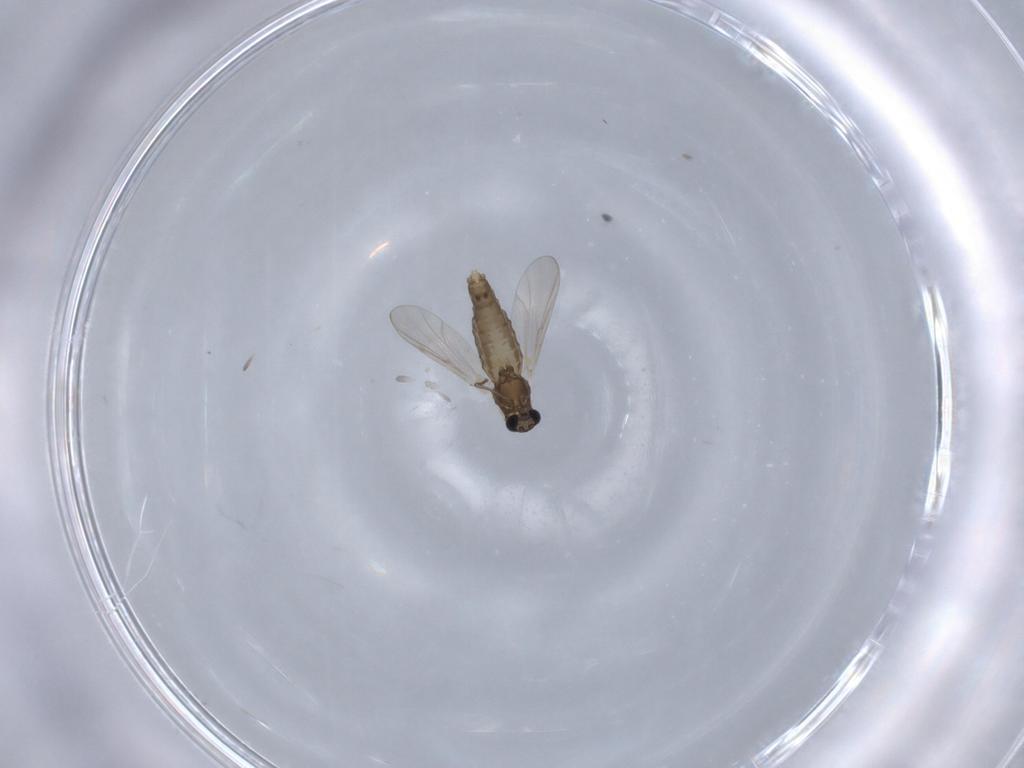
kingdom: Animalia
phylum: Arthropoda
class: Insecta
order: Diptera
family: Chironomidae
